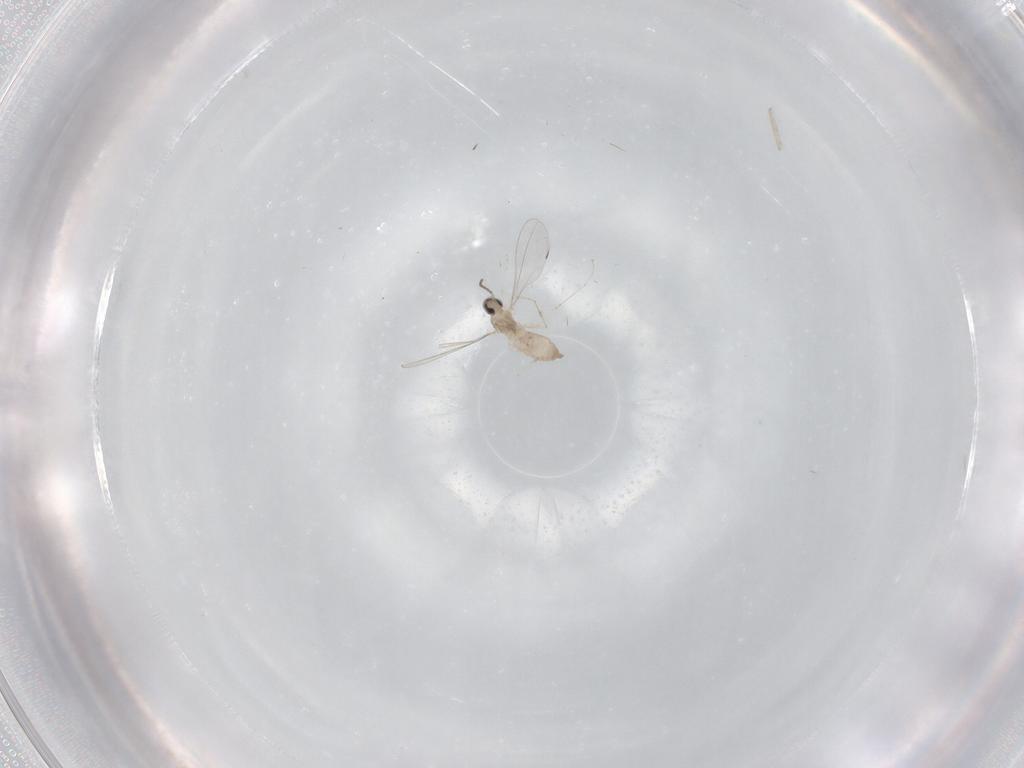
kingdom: Animalia
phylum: Arthropoda
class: Insecta
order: Diptera
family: Cecidomyiidae
